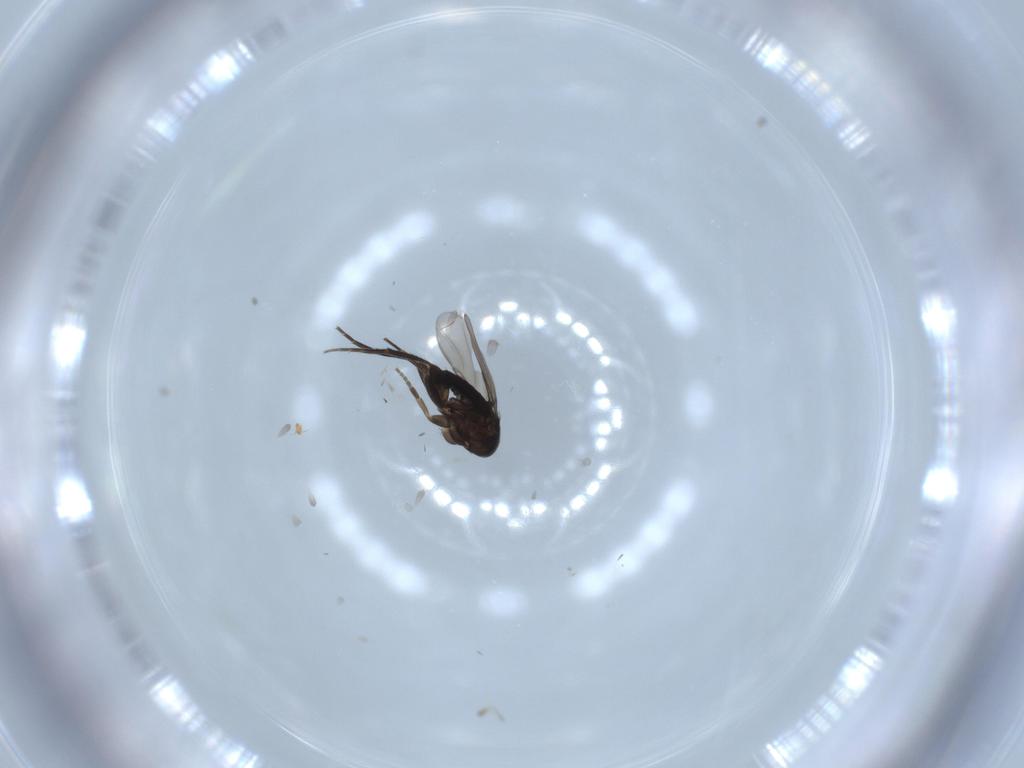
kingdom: Animalia
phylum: Arthropoda
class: Insecta
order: Diptera
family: Phoridae
